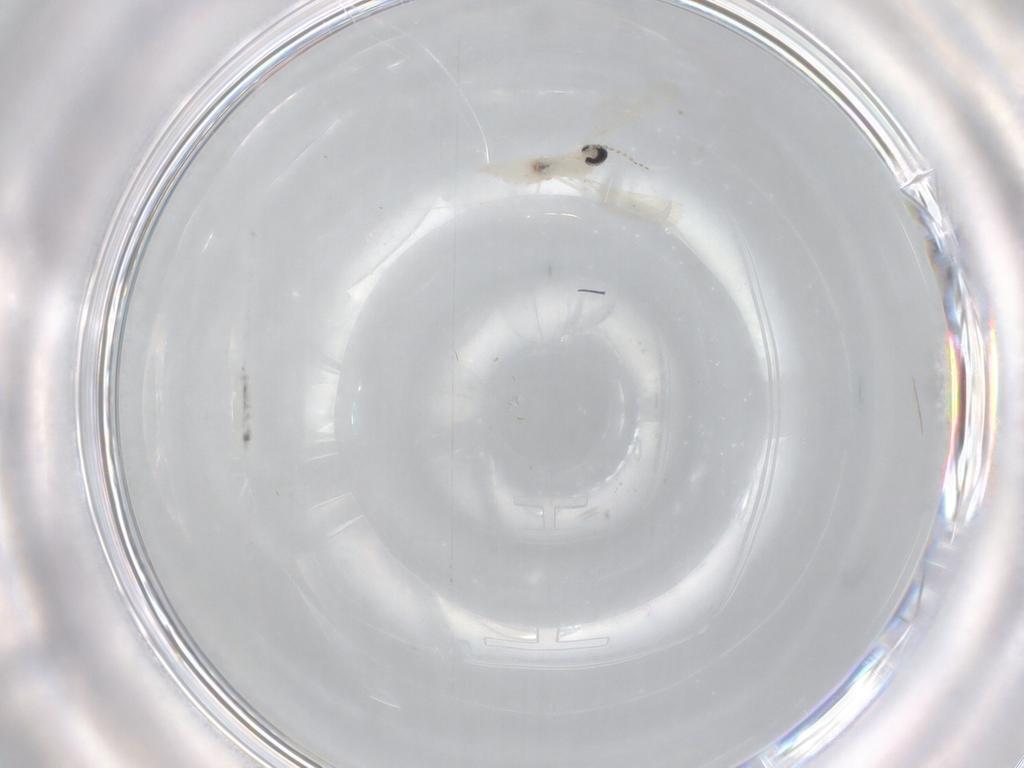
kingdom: Animalia
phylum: Arthropoda
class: Insecta
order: Diptera
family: Cecidomyiidae
